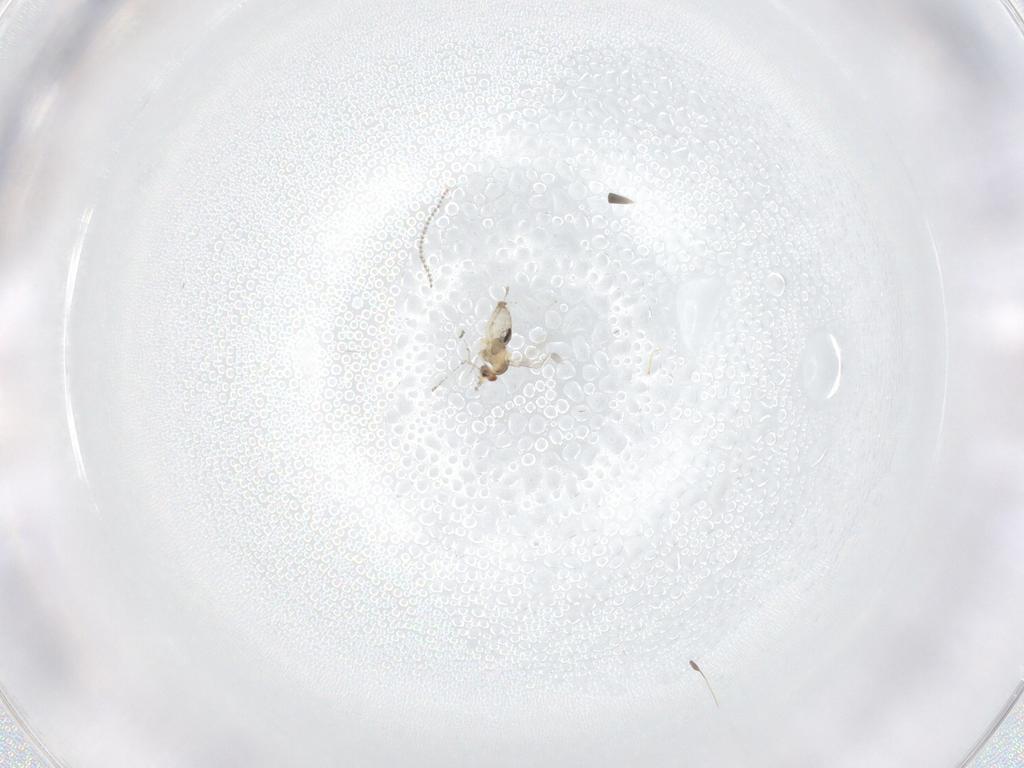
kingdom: Animalia
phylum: Arthropoda
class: Insecta
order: Diptera
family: Cecidomyiidae
